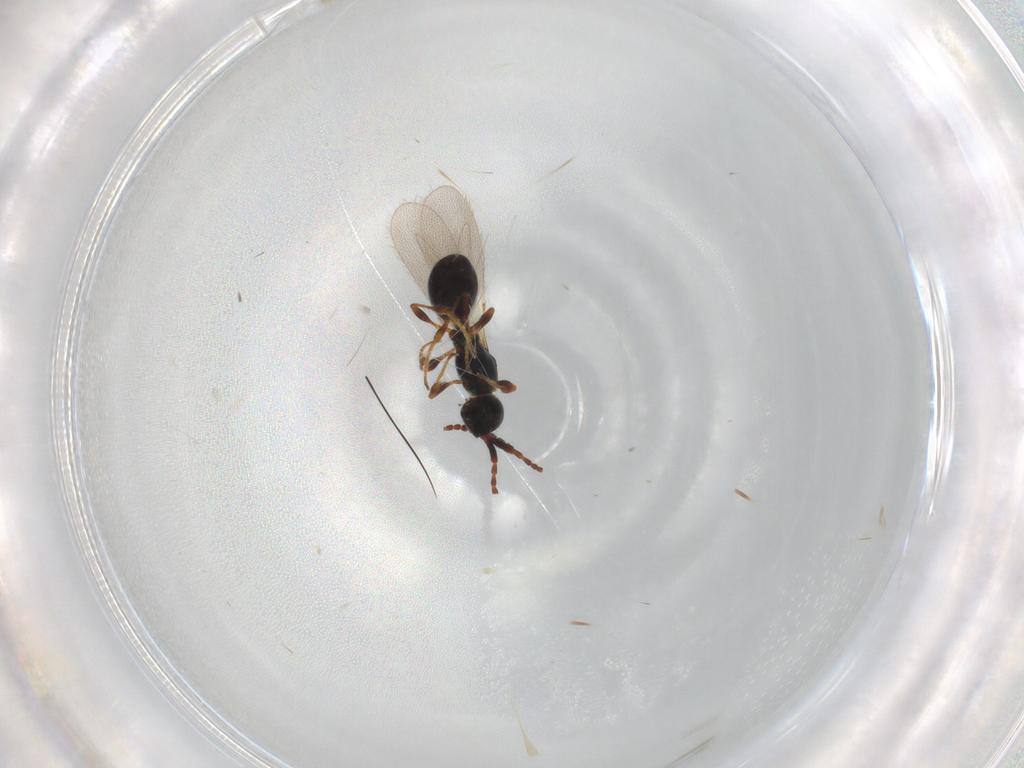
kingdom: Animalia
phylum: Arthropoda
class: Insecta
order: Hymenoptera
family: Diapriidae
